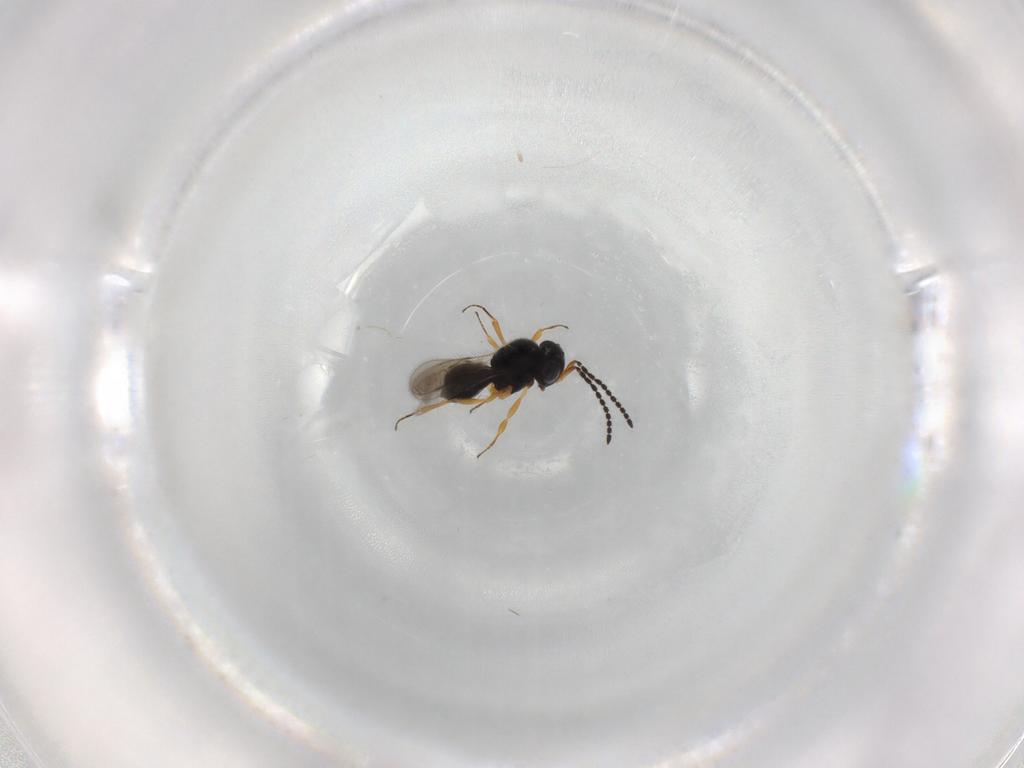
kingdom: Animalia
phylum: Arthropoda
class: Insecta
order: Hymenoptera
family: Scelionidae
